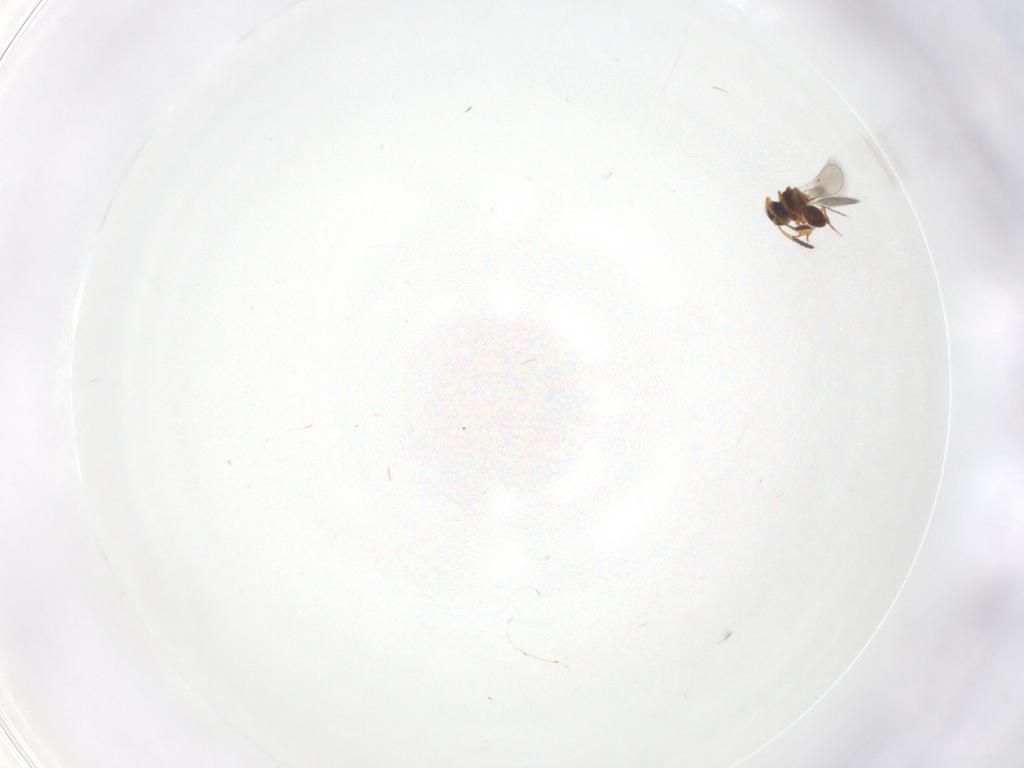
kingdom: Animalia
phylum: Arthropoda
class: Insecta
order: Hymenoptera
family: Platygastridae
